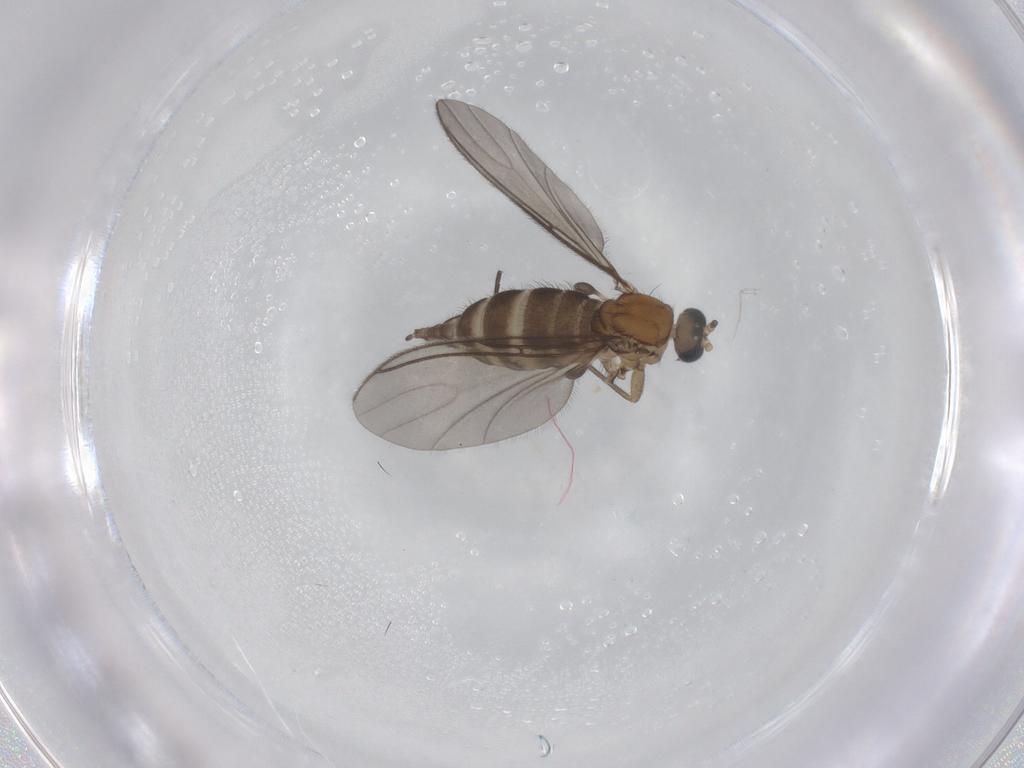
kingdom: Animalia
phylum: Arthropoda
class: Insecta
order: Diptera
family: Sciaridae
